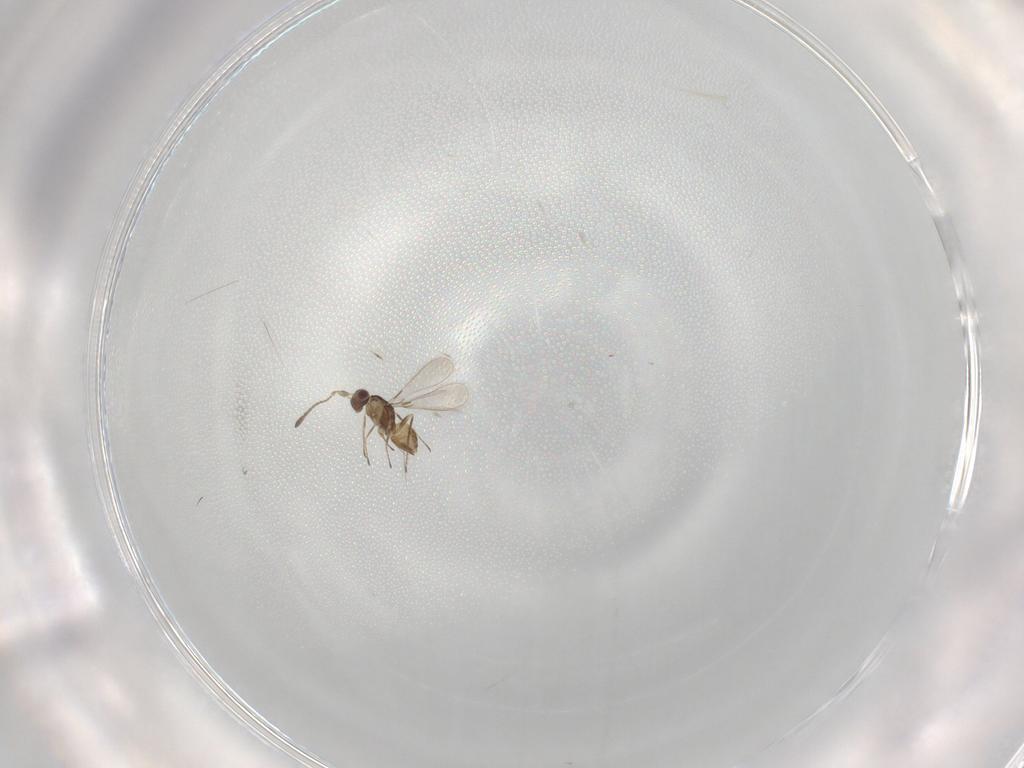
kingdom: Animalia
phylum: Arthropoda
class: Insecta
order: Hymenoptera
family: Mymaridae
